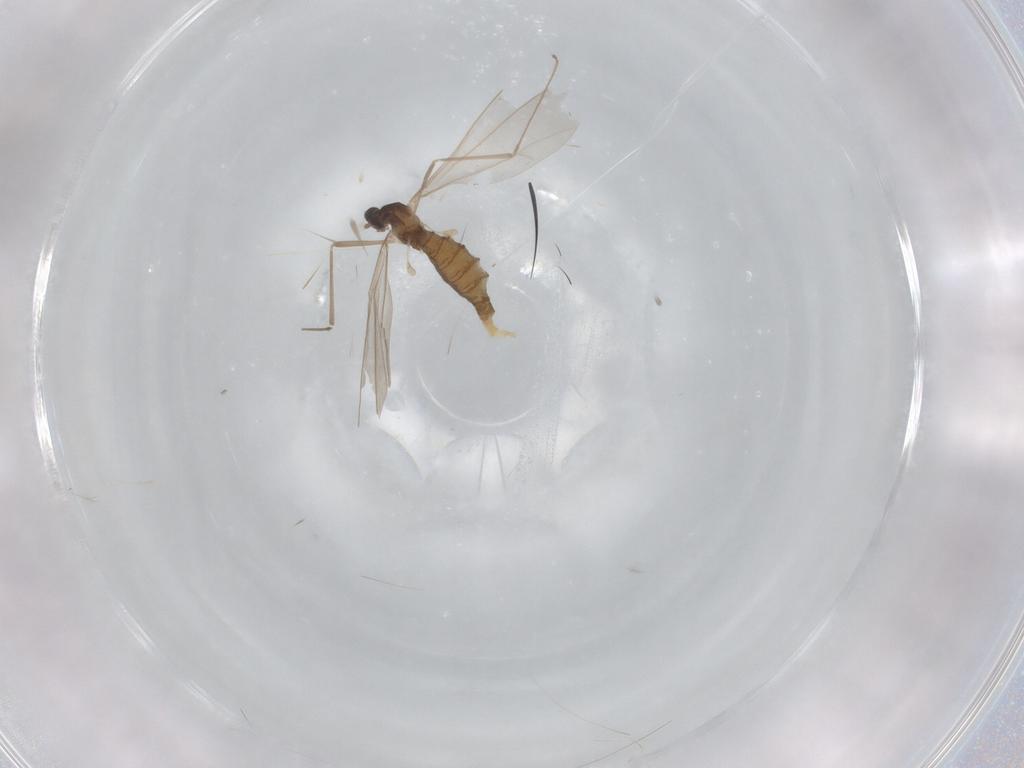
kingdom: Animalia
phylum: Arthropoda
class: Insecta
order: Diptera
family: Cecidomyiidae
